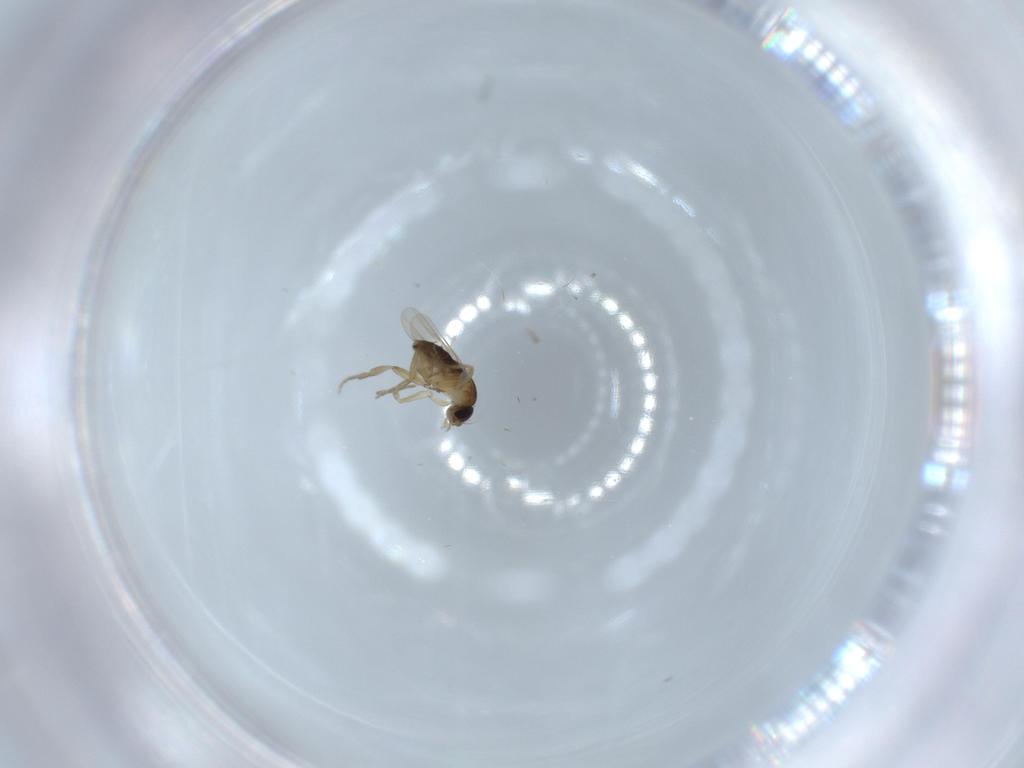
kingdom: Animalia
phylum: Arthropoda
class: Insecta
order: Diptera
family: Phoridae
